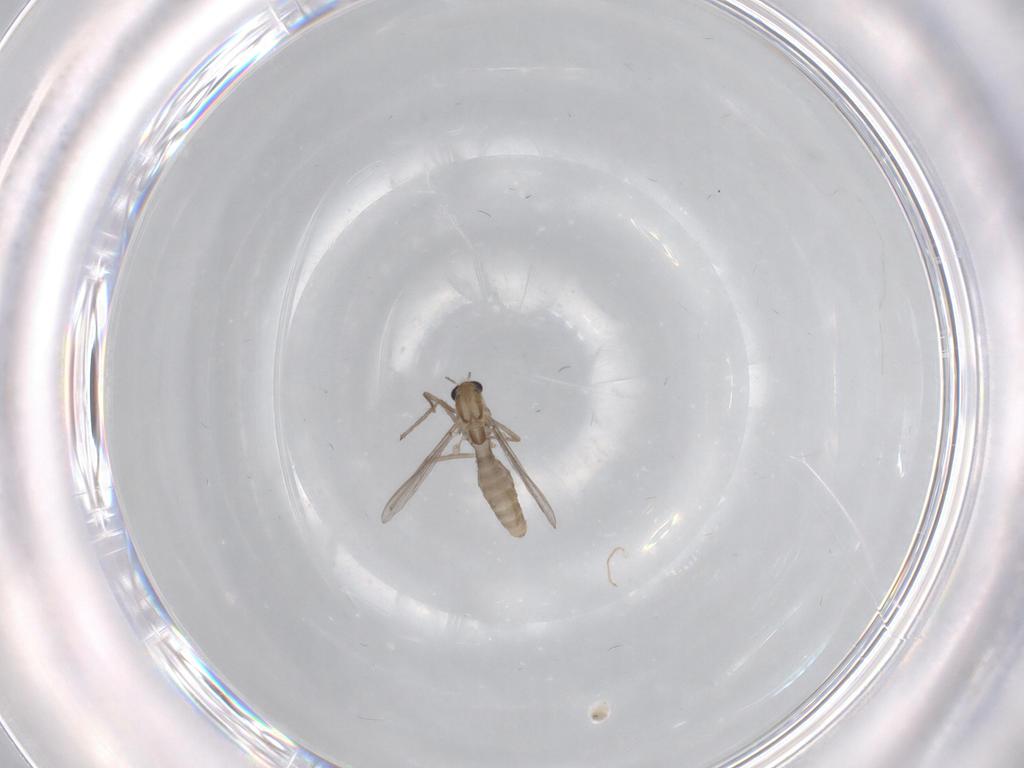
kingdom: Animalia
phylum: Arthropoda
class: Insecta
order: Diptera
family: Chironomidae
